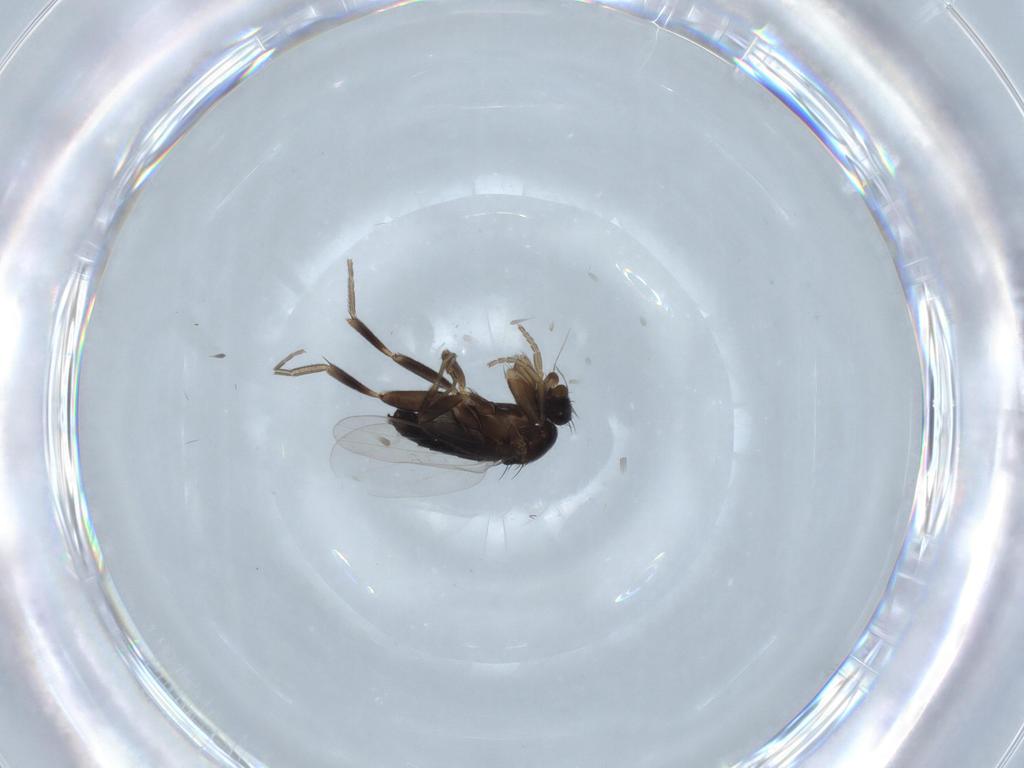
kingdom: Animalia
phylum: Arthropoda
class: Insecta
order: Diptera
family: Phoridae
